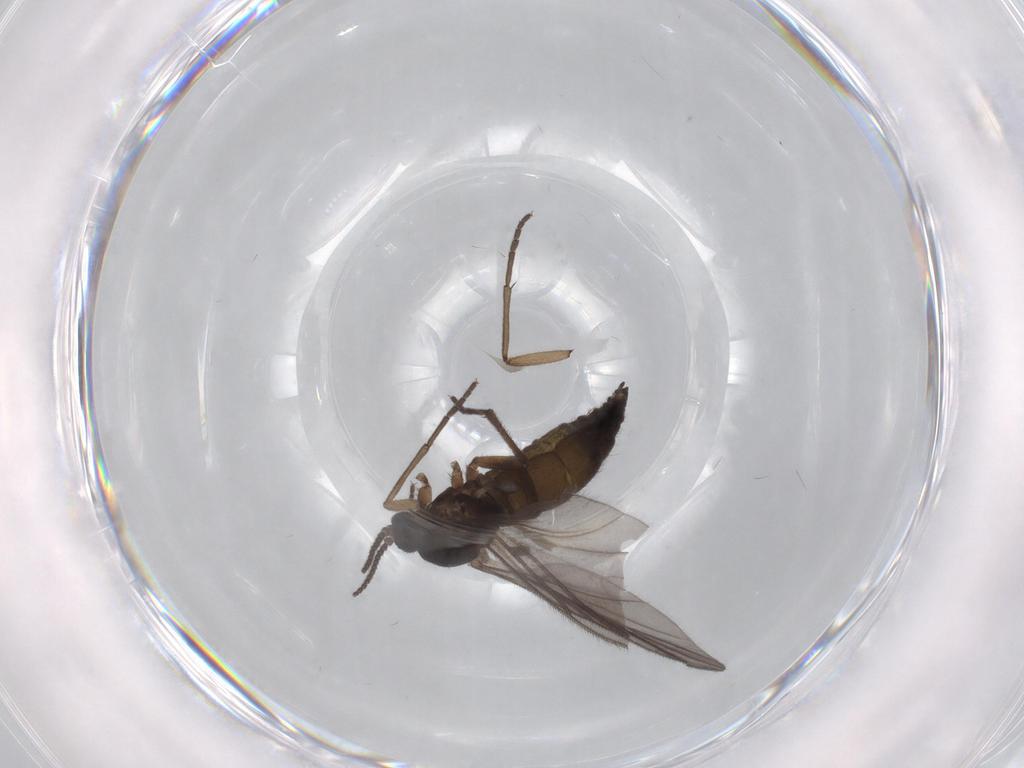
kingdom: Animalia
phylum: Arthropoda
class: Insecta
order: Diptera
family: Sciaridae
